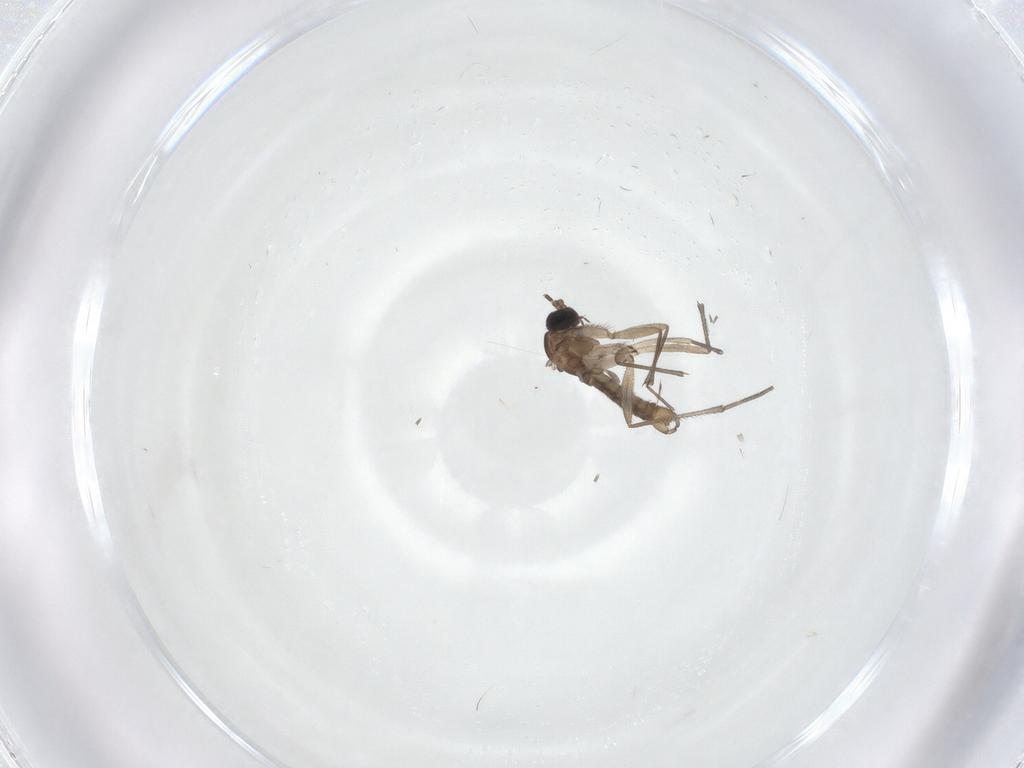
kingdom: Animalia
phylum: Arthropoda
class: Insecta
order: Diptera
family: Sciaridae
